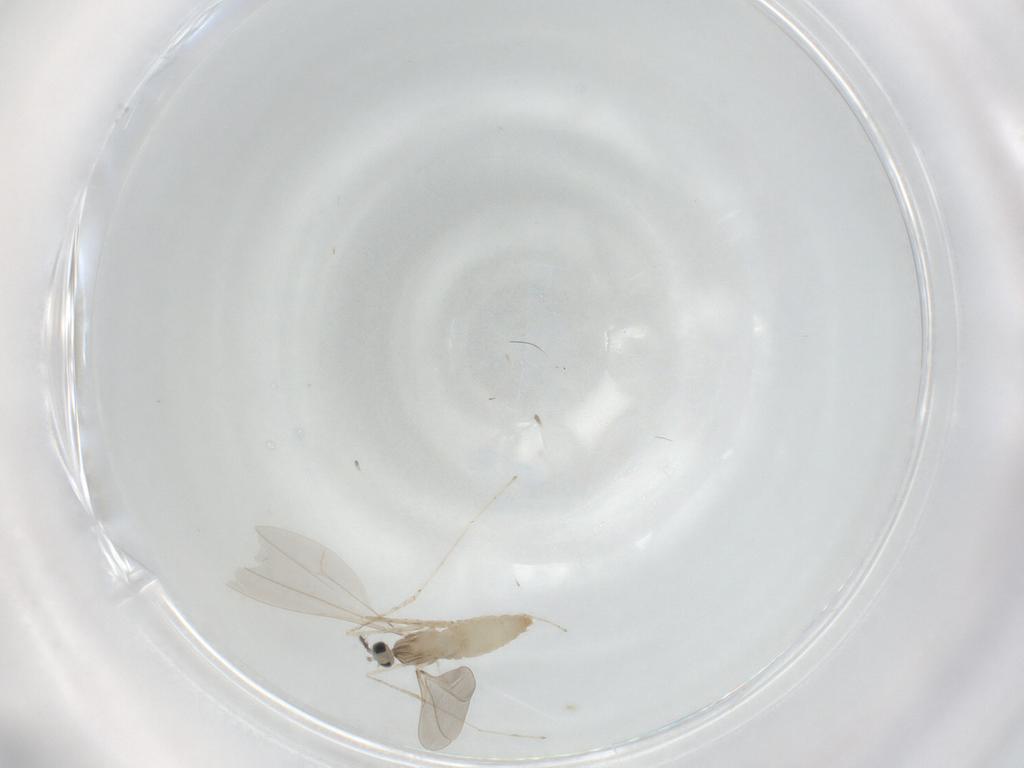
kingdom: Animalia
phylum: Arthropoda
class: Insecta
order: Diptera
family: Cecidomyiidae
